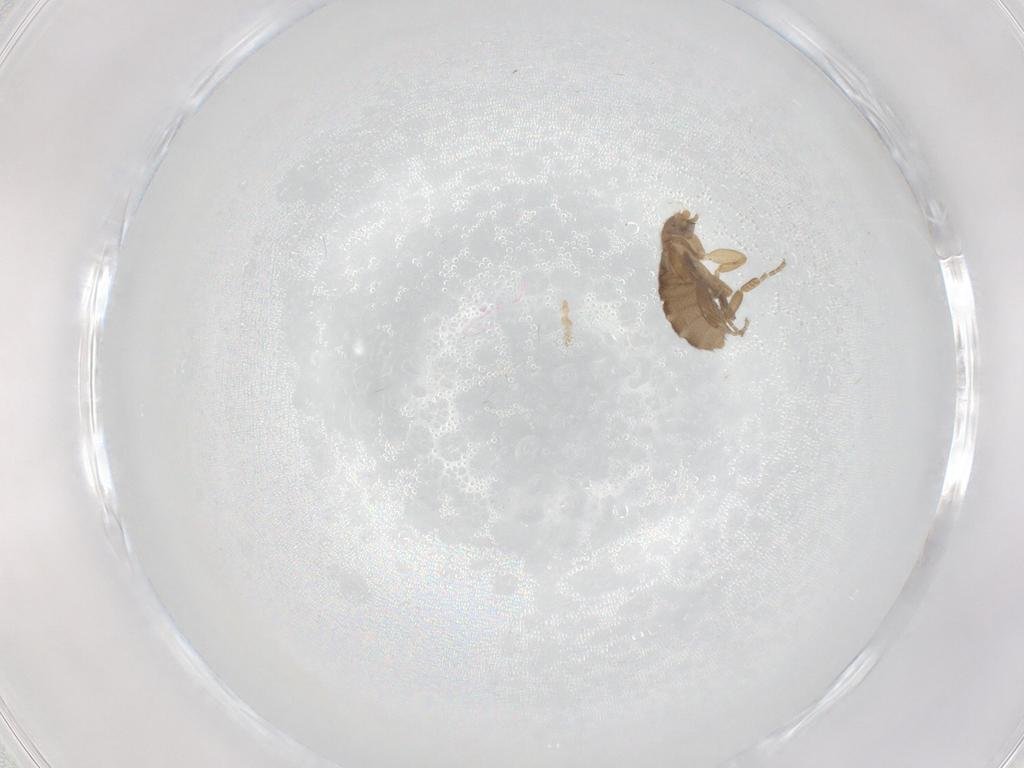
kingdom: Animalia
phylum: Arthropoda
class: Insecta
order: Diptera
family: Phoridae
